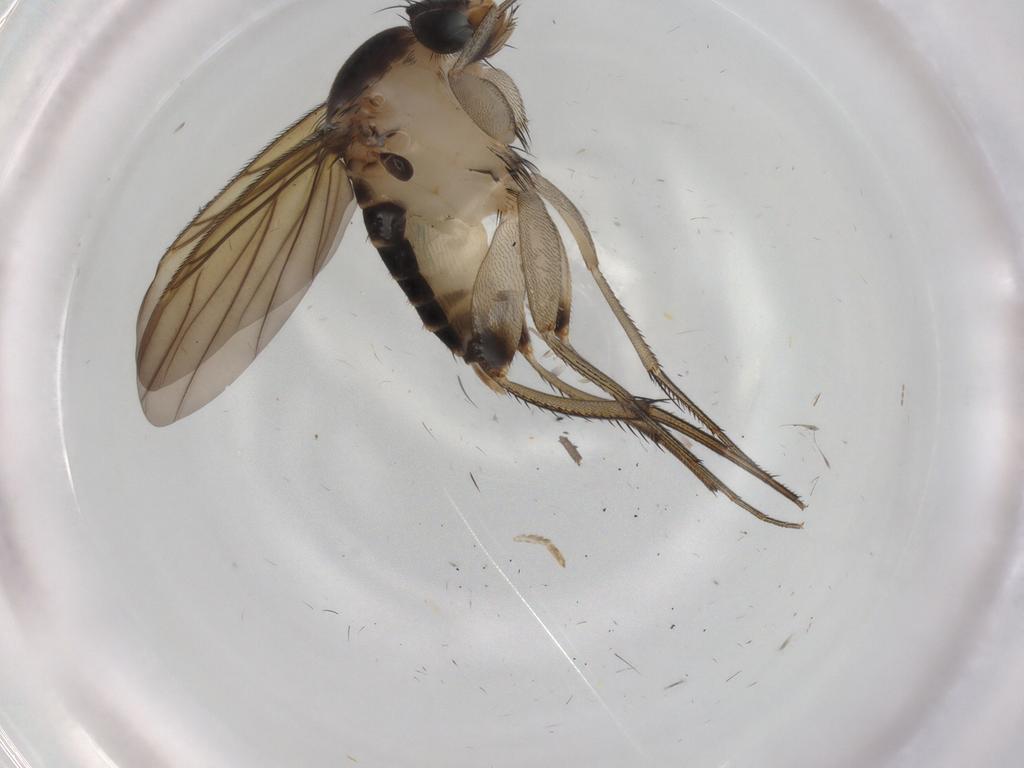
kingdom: Animalia
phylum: Arthropoda
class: Insecta
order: Diptera
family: Phoridae
